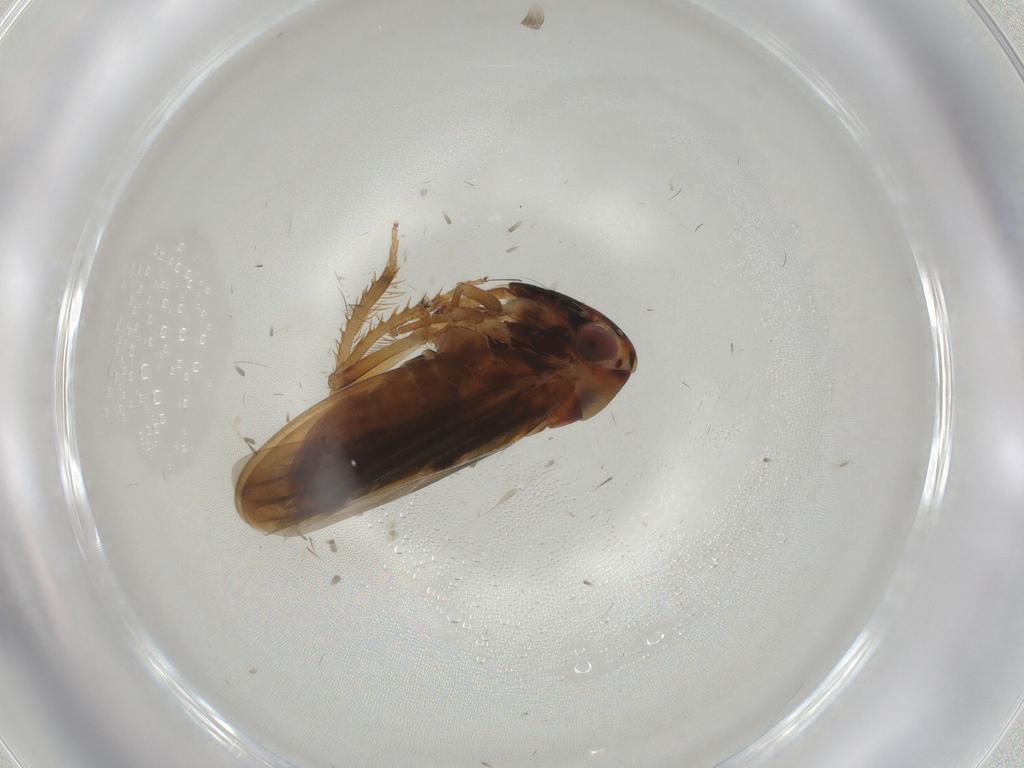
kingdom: Animalia
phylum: Arthropoda
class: Insecta
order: Hemiptera
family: Cicadellidae
